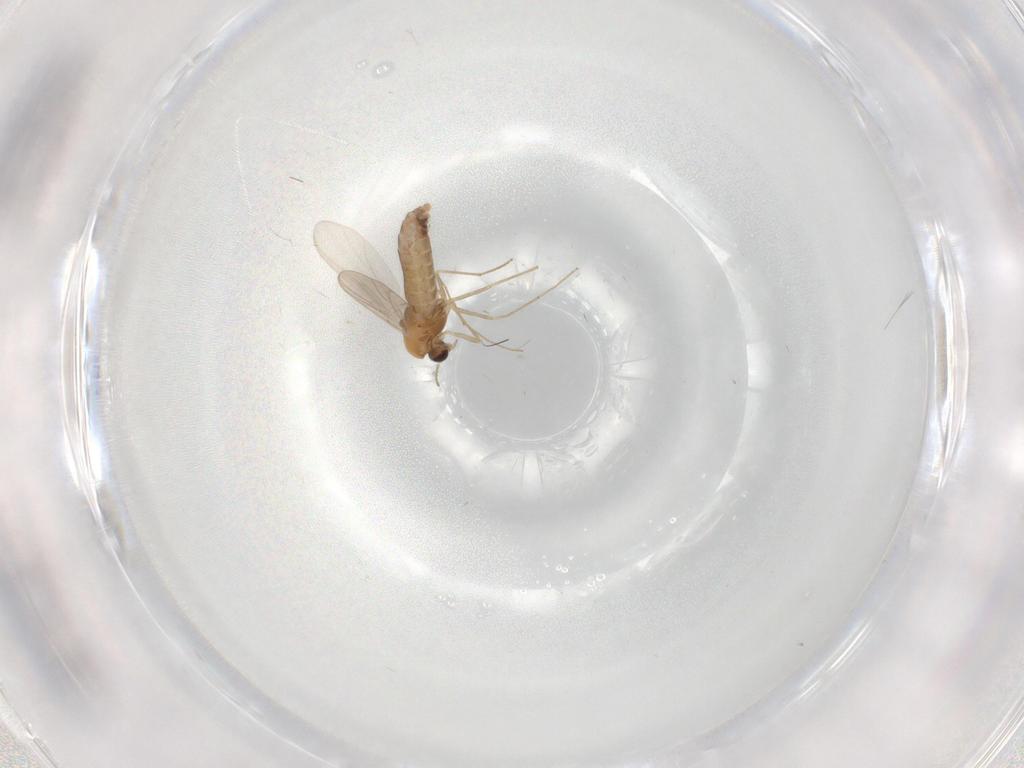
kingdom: Animalia
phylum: Arthropoda
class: Insecta
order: Diptera
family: Chironomidae
